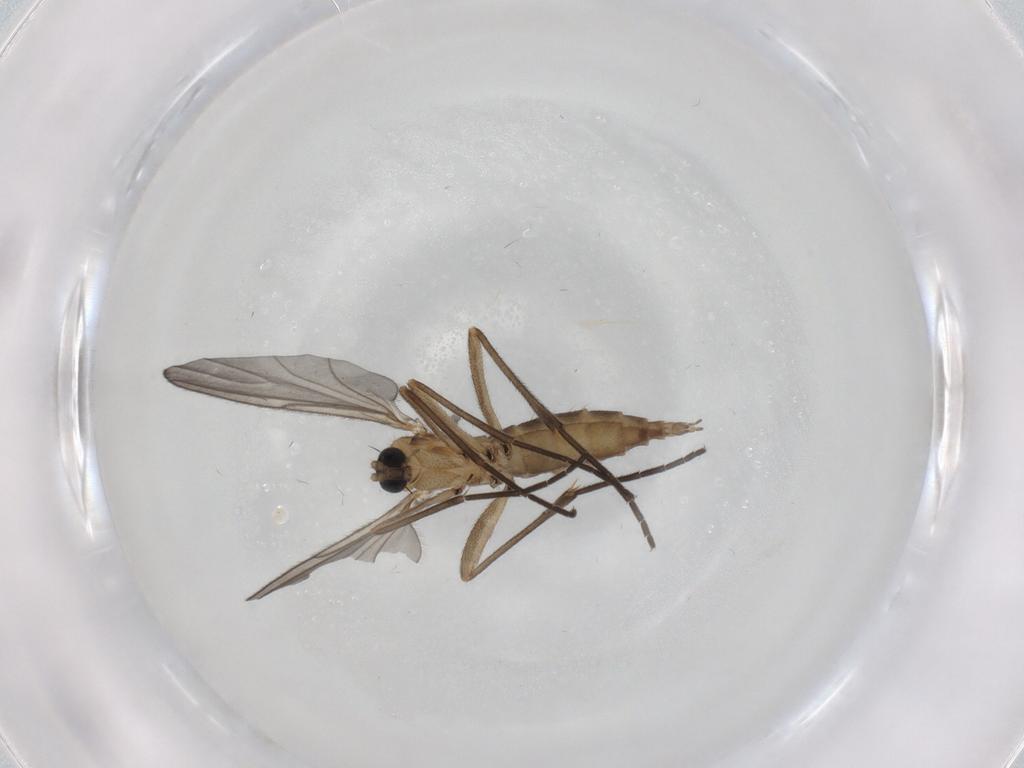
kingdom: Animalia
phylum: Arthropoda
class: Insecta
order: Diptera
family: Sciaridae
